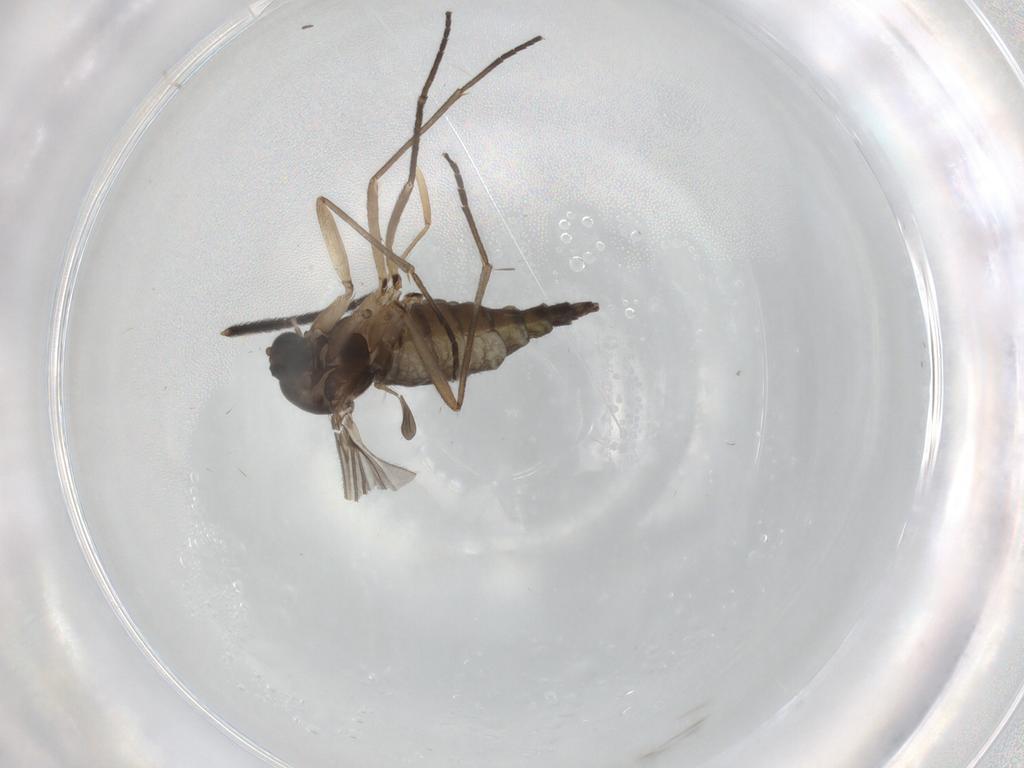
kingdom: Animalia
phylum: Arthropoda
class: Insecta
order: Diptera
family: Sciaridae
